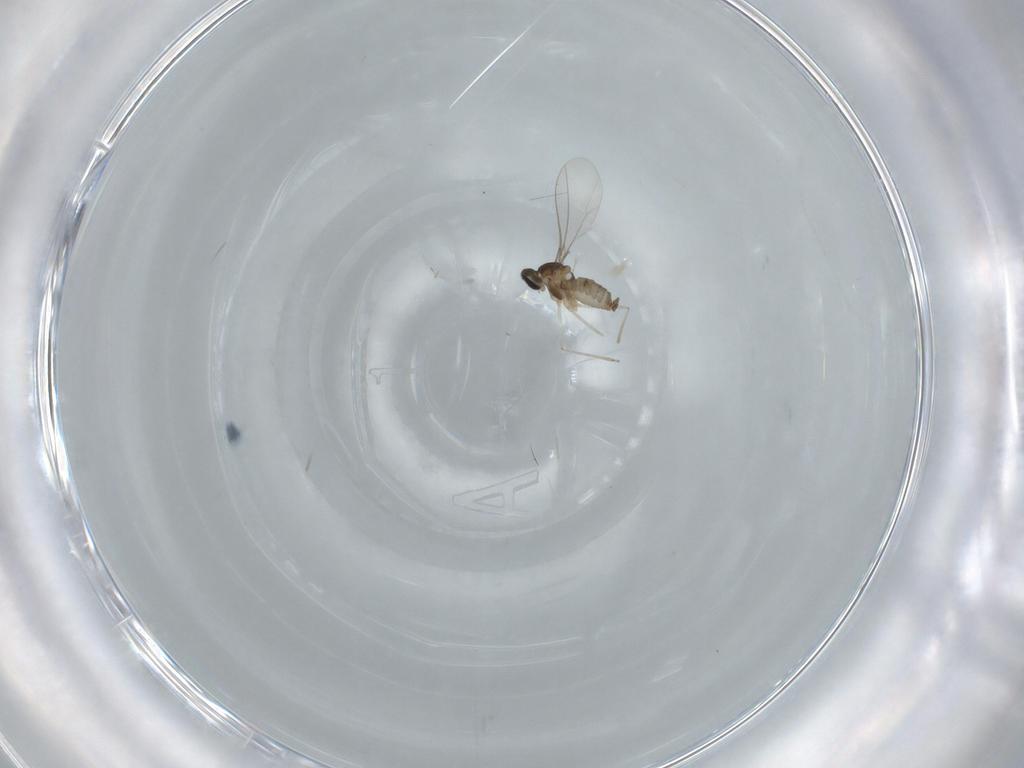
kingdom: Animalia
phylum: Arthropoda
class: Insecta
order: Diptera
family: Cecidomyiidae
